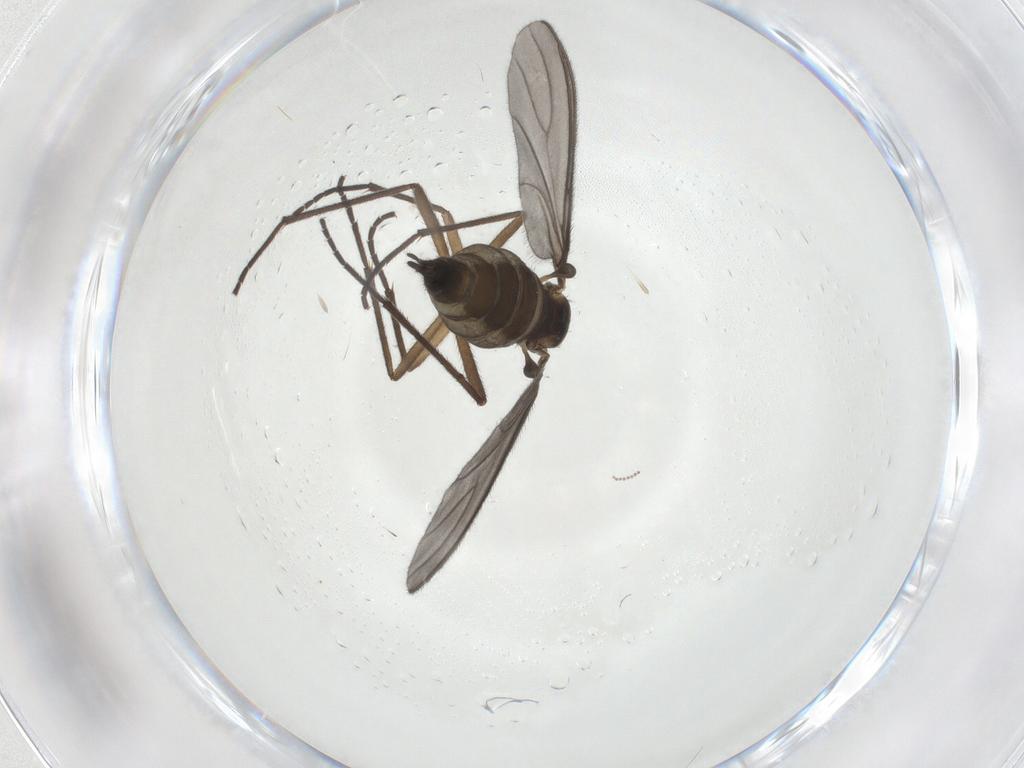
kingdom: Animalia
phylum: Arthropoda
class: Insecta
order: Diptera
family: Sciaridae
